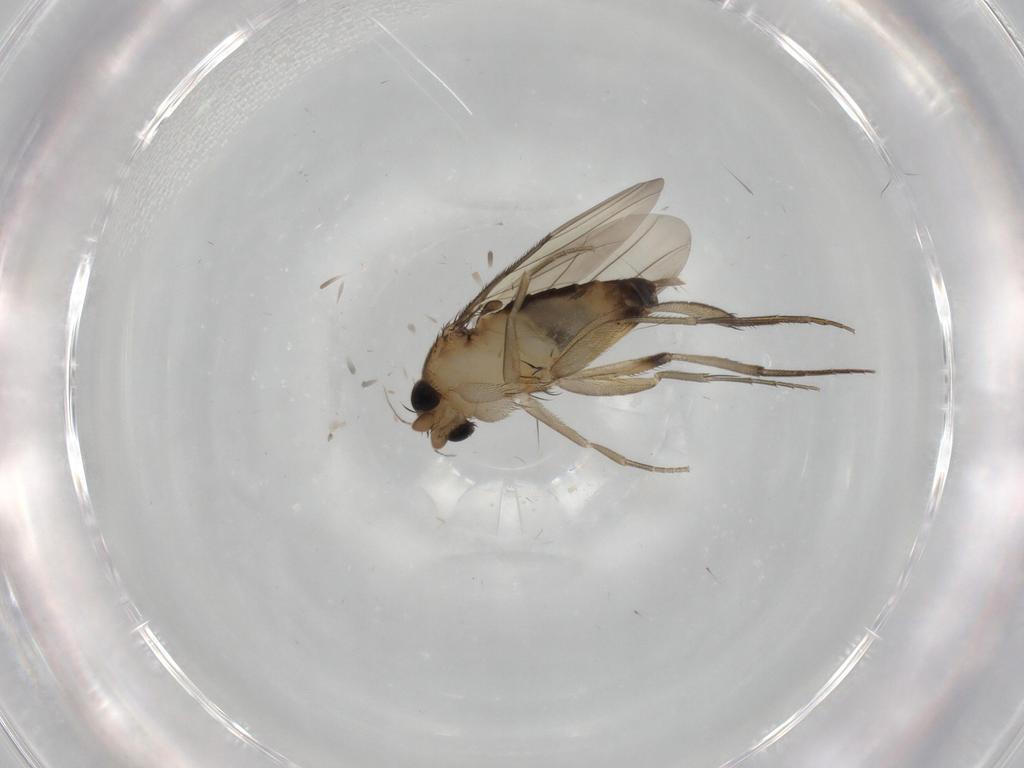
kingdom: Animalia
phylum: Arthropoda
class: Insecta
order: Diptera
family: Phoridae
